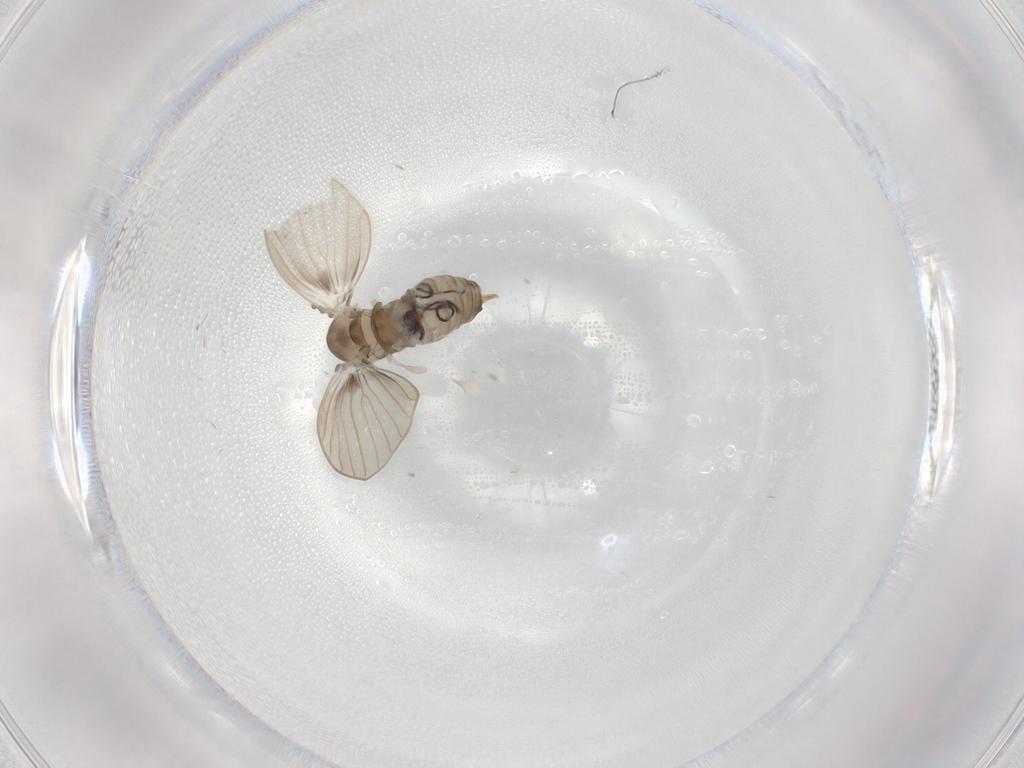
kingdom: Animalia
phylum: Arthropoda
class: Insecta
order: Diptera
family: Psychodidae
